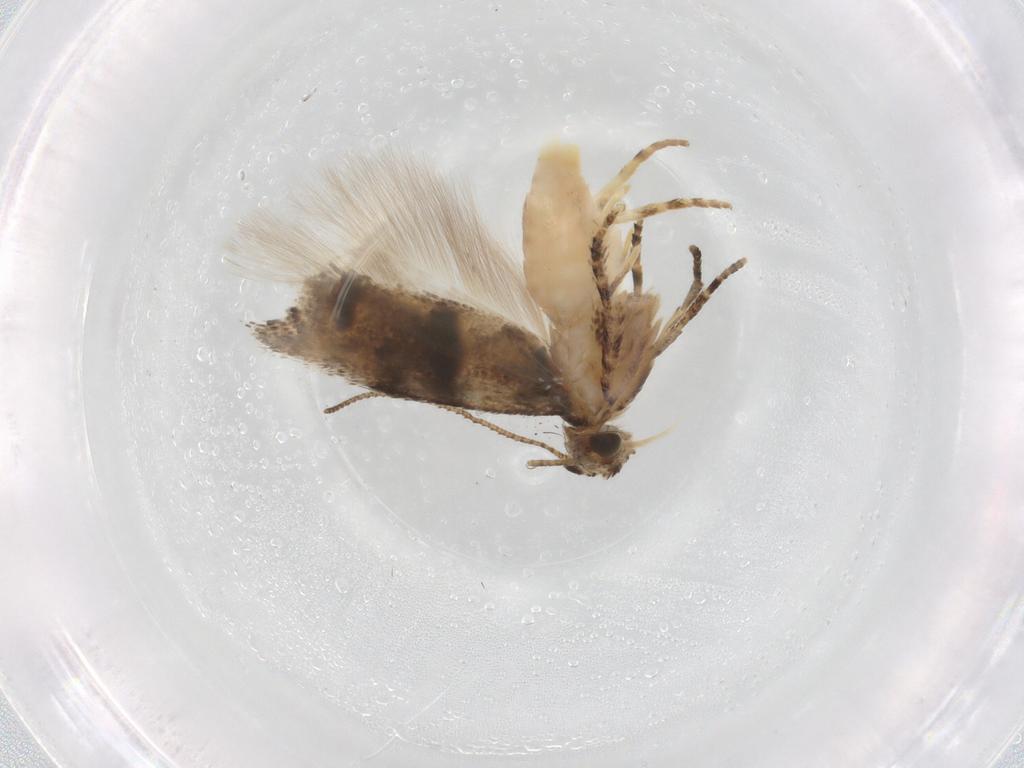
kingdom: Animalia
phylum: Arthropoda
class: Insecta
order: Lepidoptera
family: Gelechiidae
